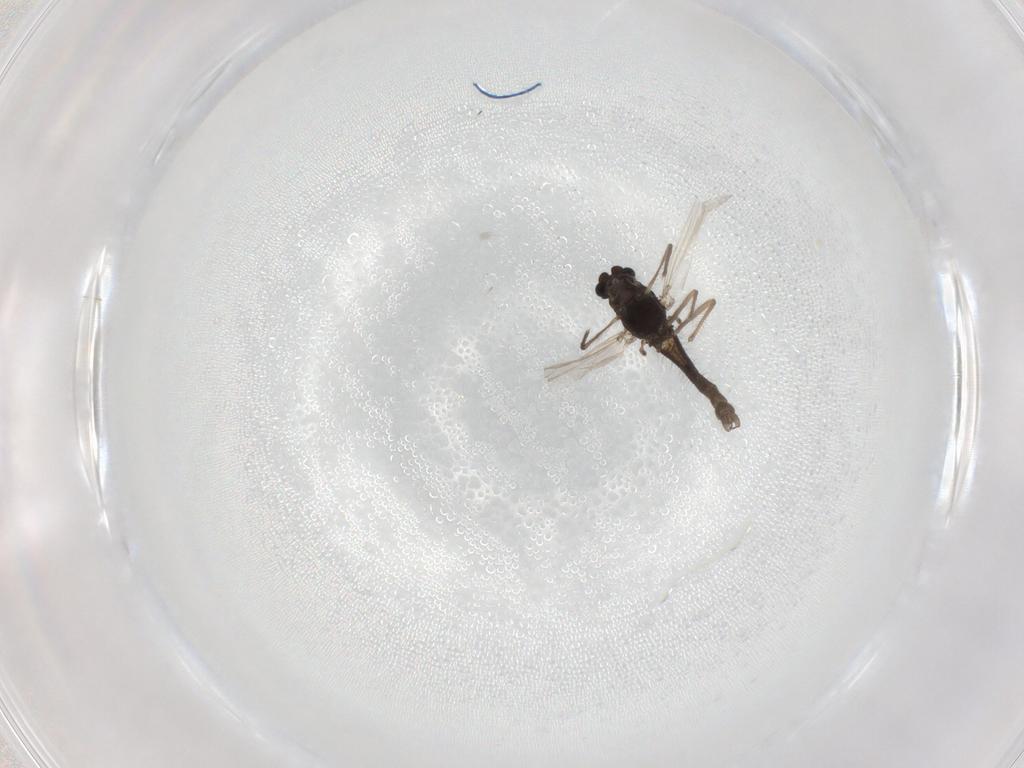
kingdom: Animalia
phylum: Arthropoda
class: Insecta
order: Diptera
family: Chironomidae
